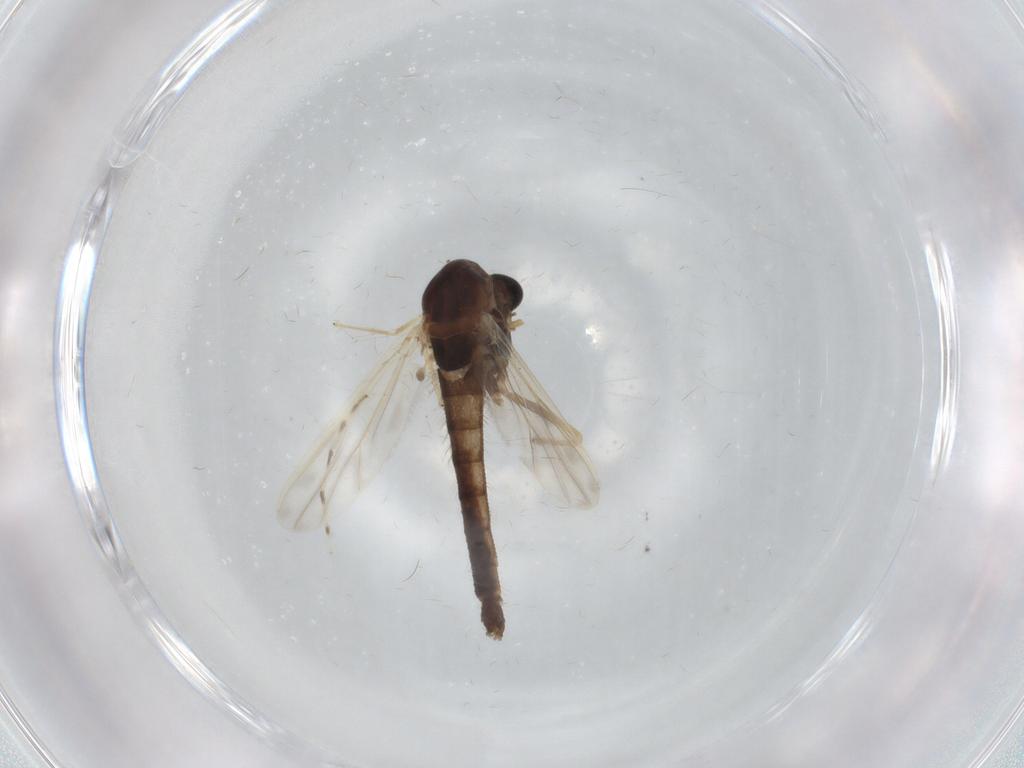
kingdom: Animalia
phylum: Arthropoda
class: Insecta
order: Diptera
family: Chironomidae
